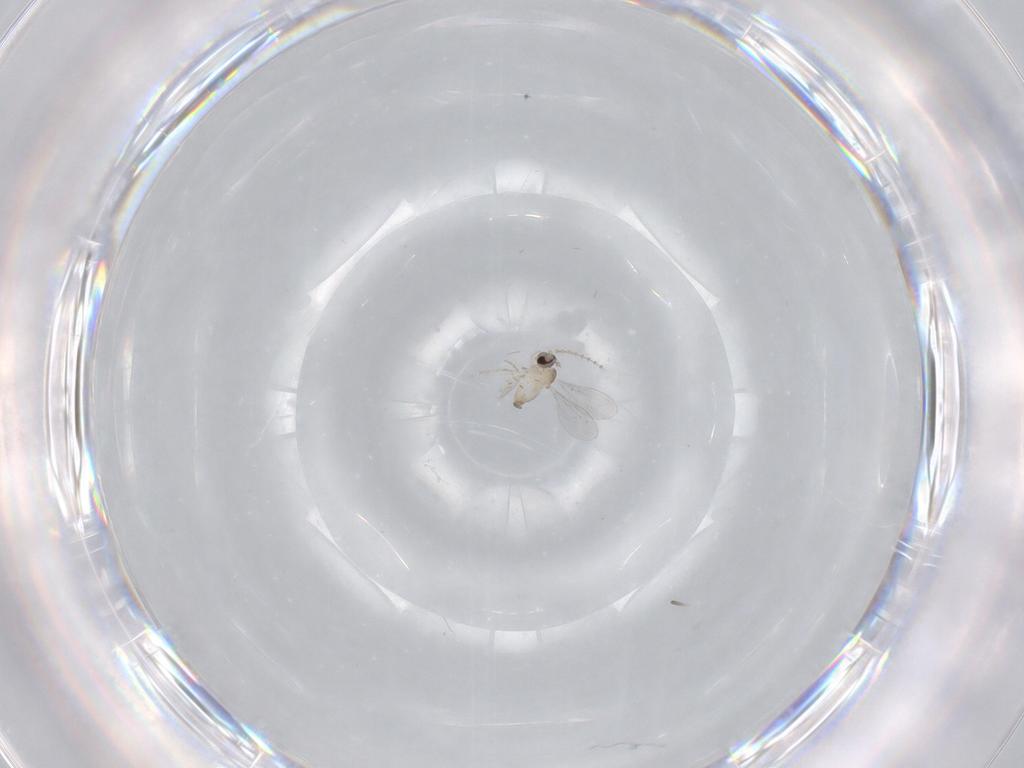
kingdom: Animalia
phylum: Arthropoda
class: Insecta
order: Diptera
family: Cecidomyiidae
